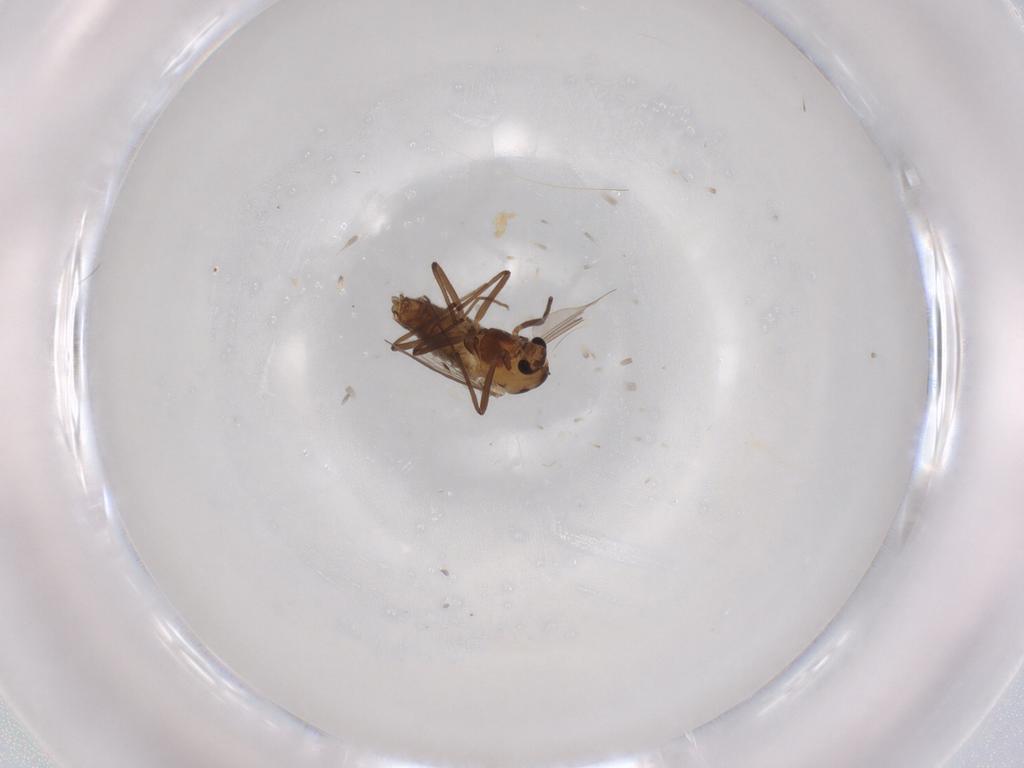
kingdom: Animalia
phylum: Arthropoda
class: Insecta
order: Diptera
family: Chironomidae
